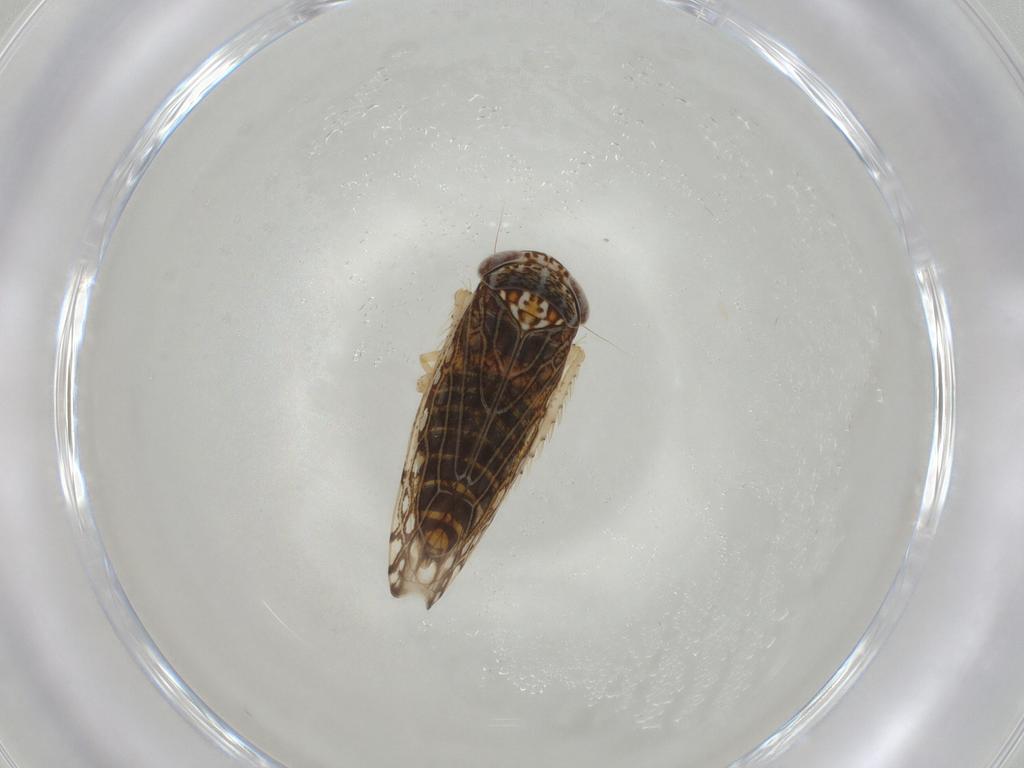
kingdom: Animalia
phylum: Arthropoda
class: Insecta
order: Hemiptera
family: Cicadellidae
